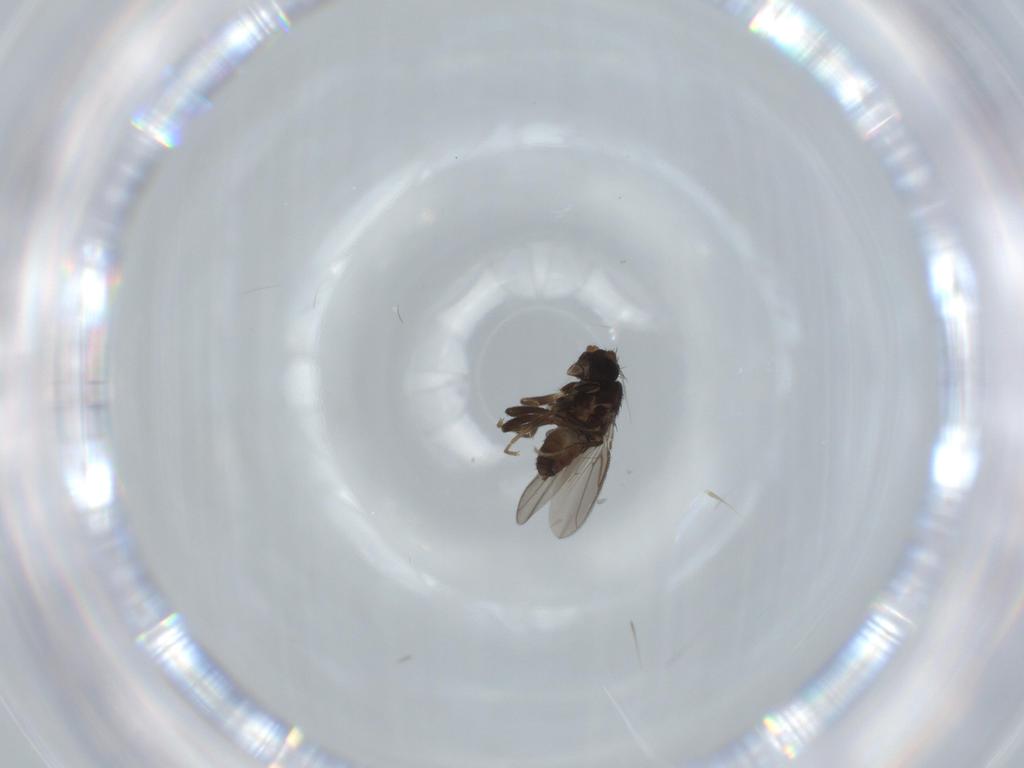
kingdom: Animalia
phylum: Arthropoda
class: Insecta
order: Diptera
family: Sphaeroceridae
